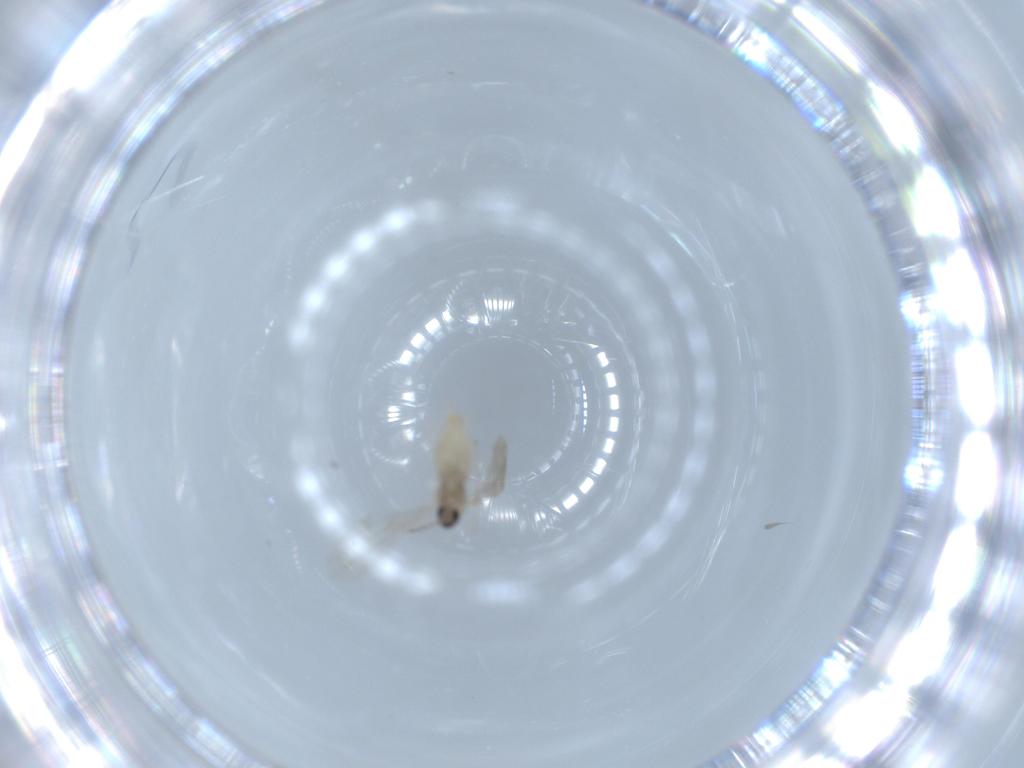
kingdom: Animalia
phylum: Arthropoda
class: Insecta
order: Diptera
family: Cecidomyiidae
